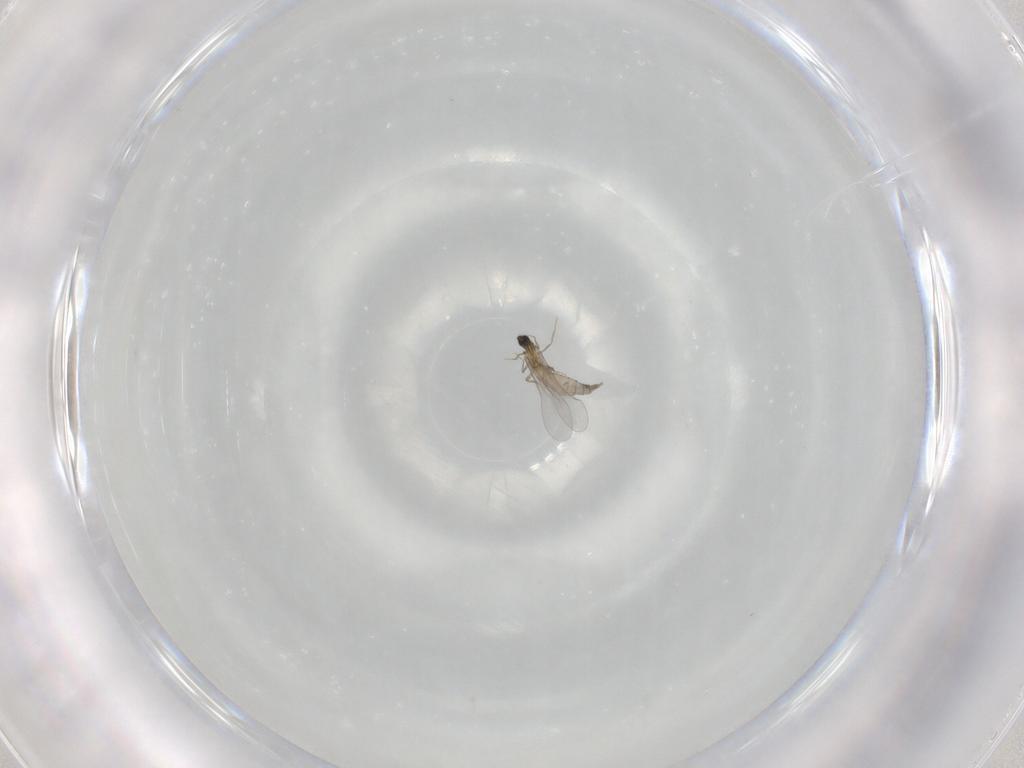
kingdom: Animalia
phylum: Arthropoda
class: Insecta
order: Diptera
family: Cecidomyiidae
